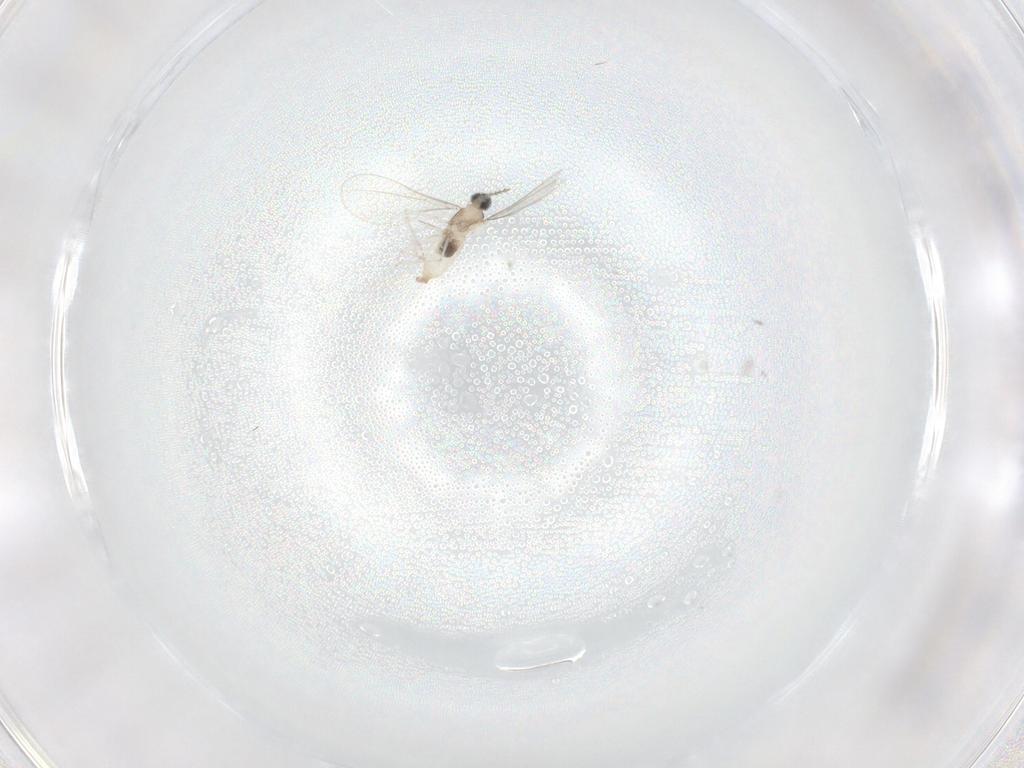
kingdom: Animalia
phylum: Arthropoda
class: Insecta
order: Diptera
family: Cecidomyiidae
